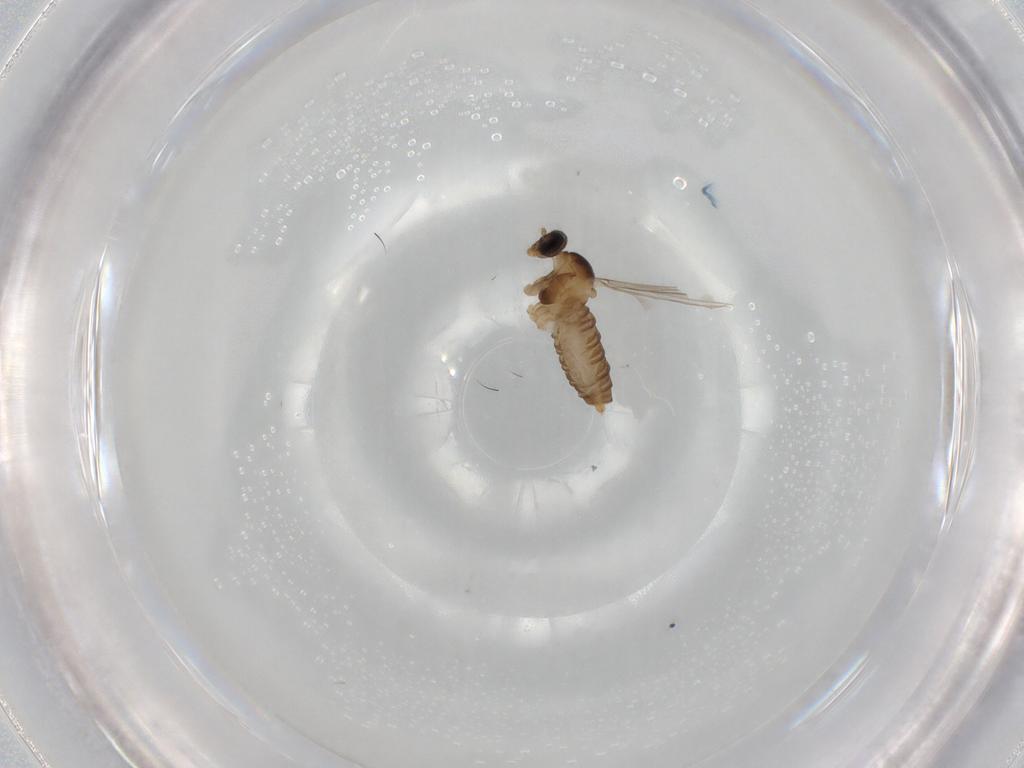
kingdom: Animalia
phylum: Arthropoda
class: Insecta
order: Diptera
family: Cecidomyiidae
